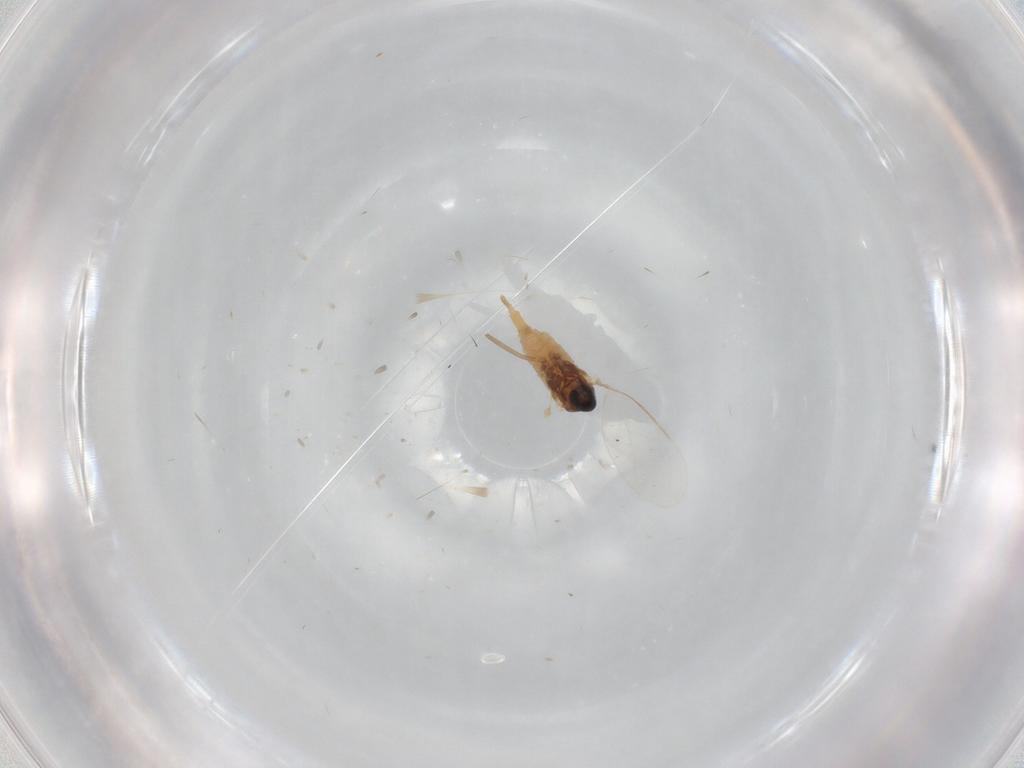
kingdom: Animalia
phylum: Arthropoda
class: Insecta
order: Diptera
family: Cecidomyiidae
